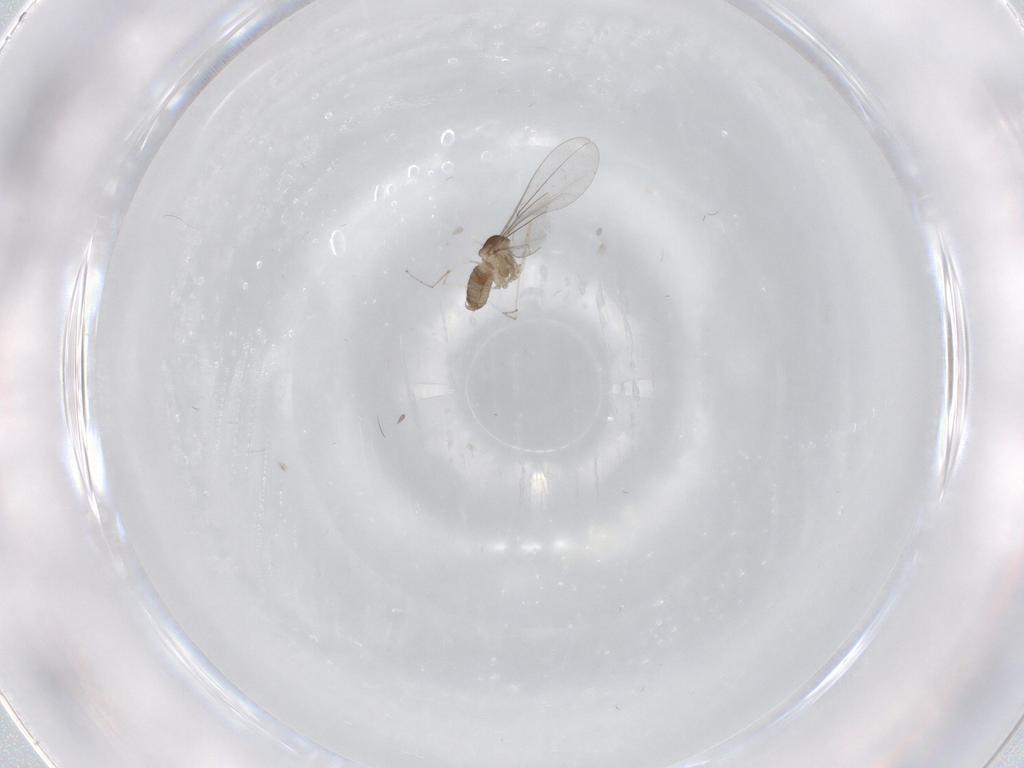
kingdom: Animalia
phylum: Arthropoda
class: Insecta
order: Diptera
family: Cecidomyiidae
